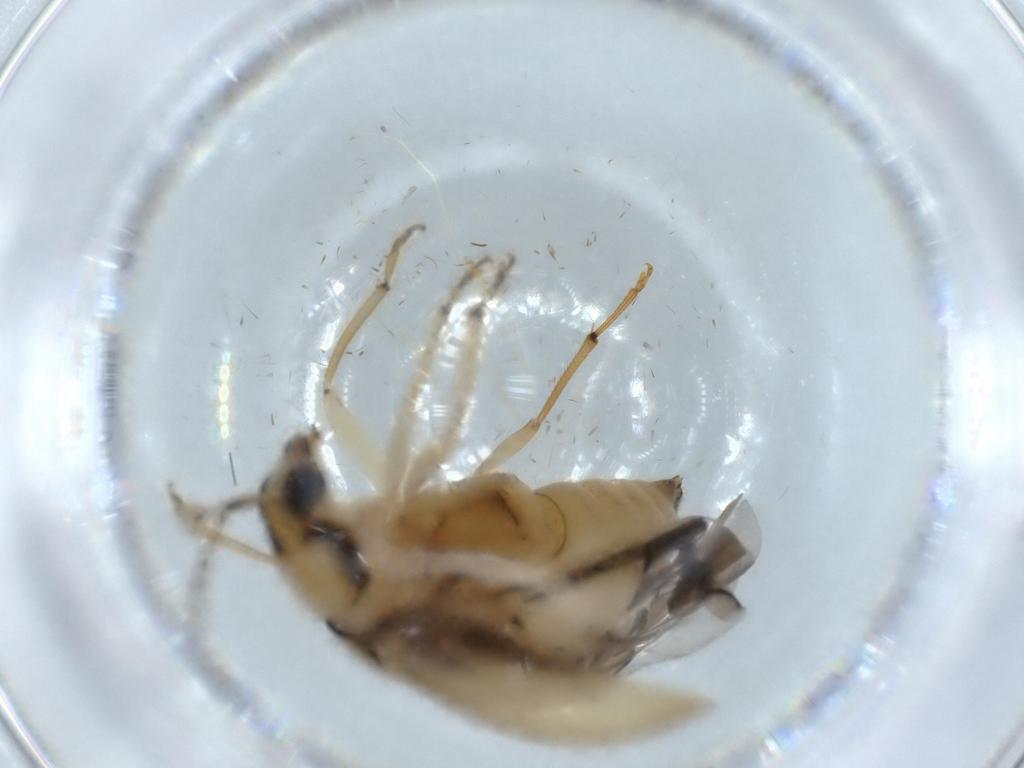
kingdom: Animalia
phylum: Arthropoda
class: Insecta
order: Coleoptera
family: Chrysomelidae
